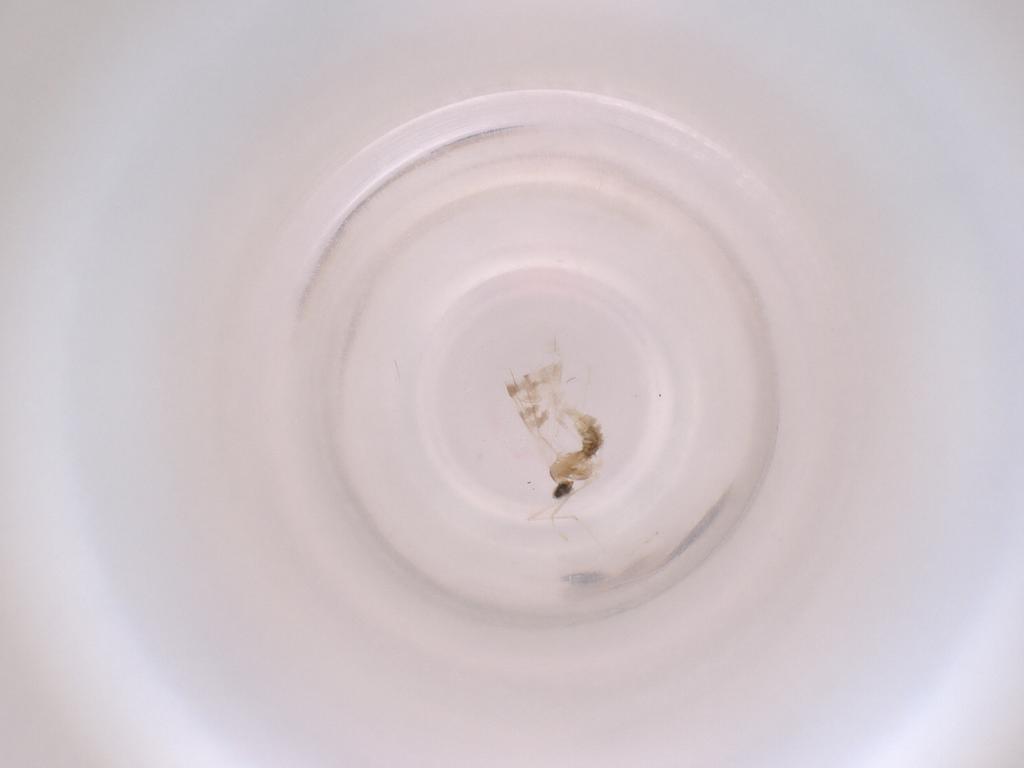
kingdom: Animalia
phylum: Arthropoda
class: Insecta
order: Diptera
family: Cecidomyiidae
